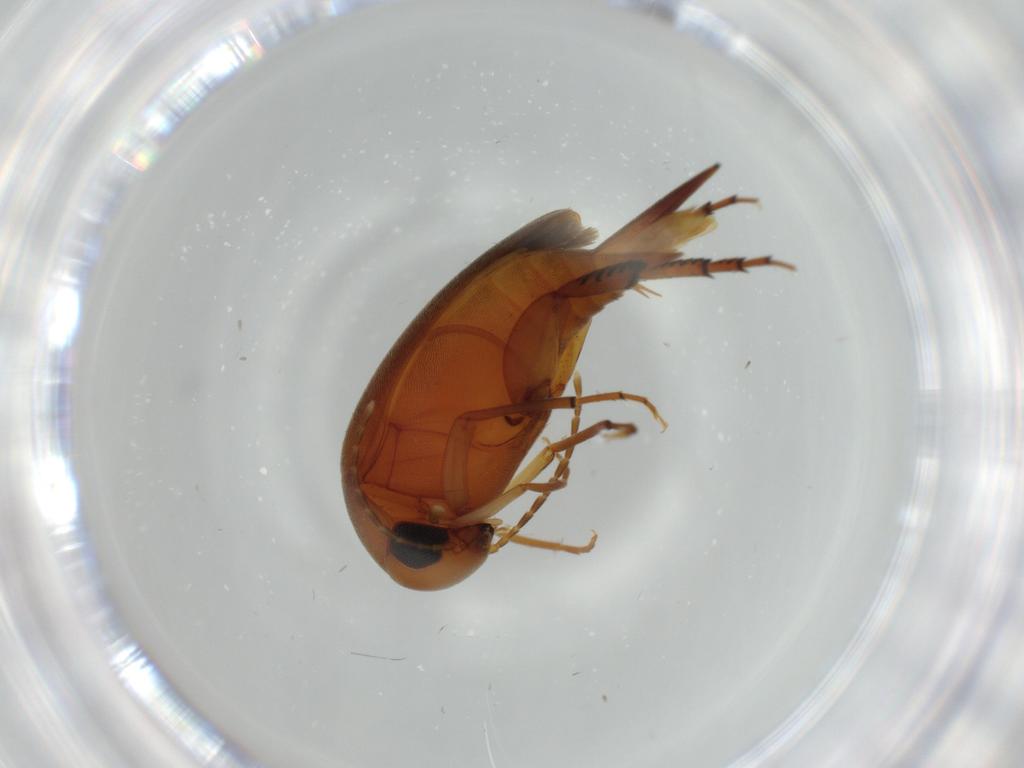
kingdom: Animalia
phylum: Arthropoda
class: Insecta
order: Coleoptera
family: Mordellidae
